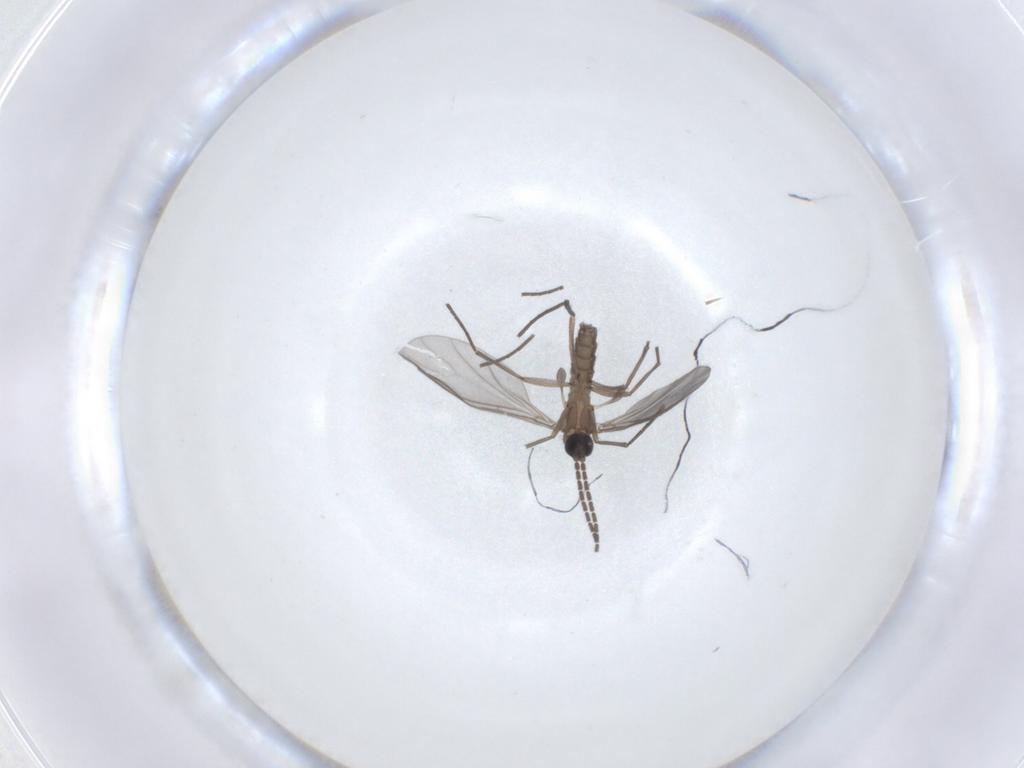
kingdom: Animalia
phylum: Arthropoda
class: Insecta
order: Diptera
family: Sciaridae
